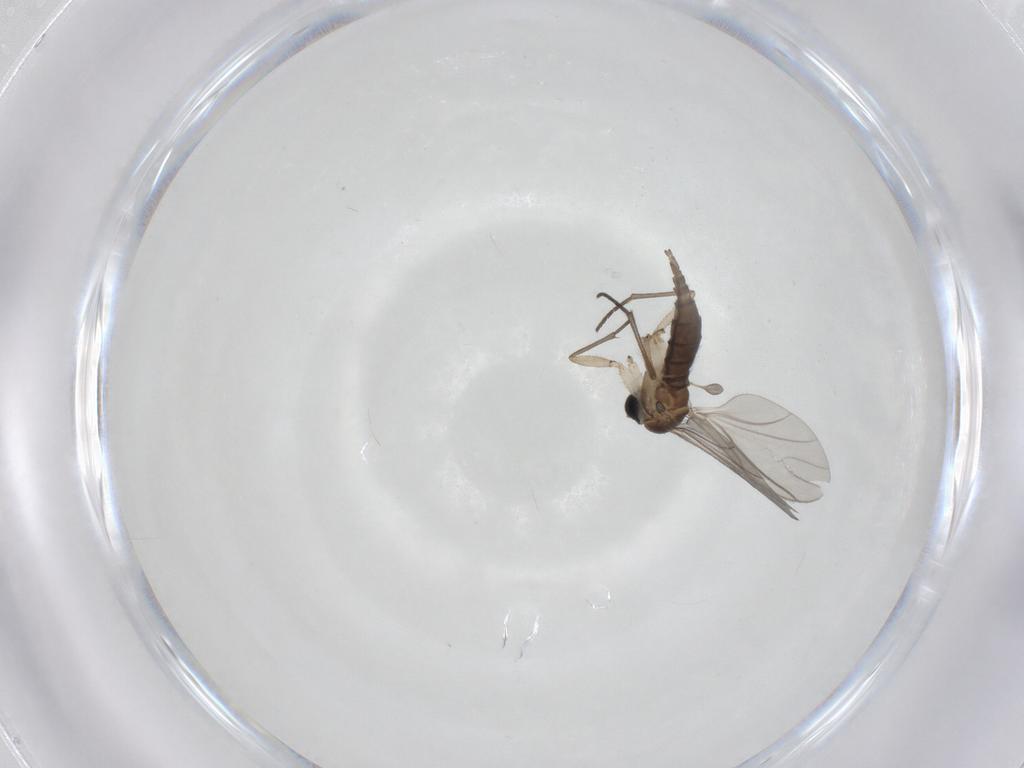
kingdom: Animalia
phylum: Arthropoda
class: Insecta
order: Diptera
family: Sciaridae
